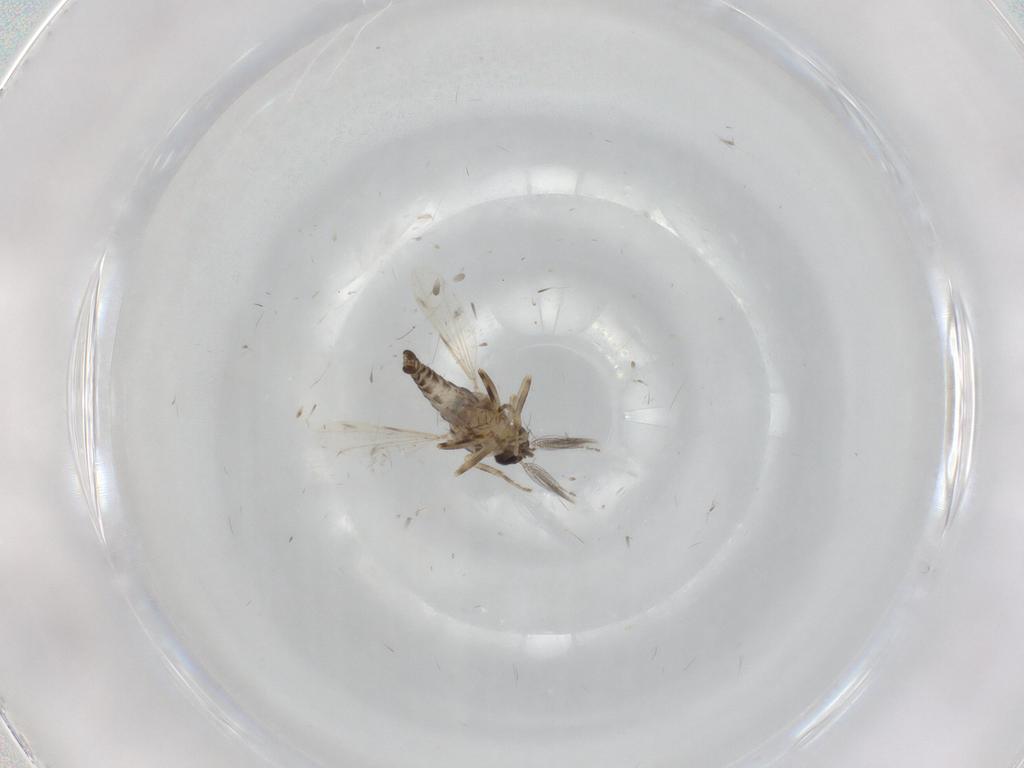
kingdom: Animalia
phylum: Arthropoda
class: Insecta
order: Diptera
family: Ceratopogonidae
